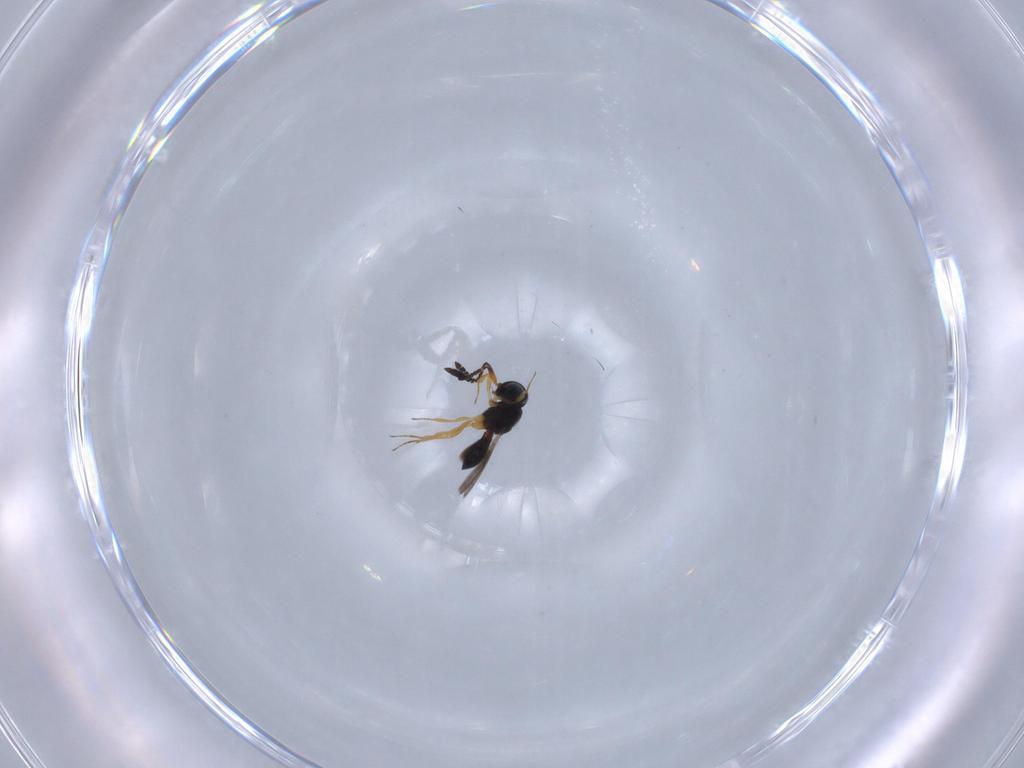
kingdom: Animalia
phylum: Arthropoda
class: Insecta
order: Hymenoptera
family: Scelionidae
